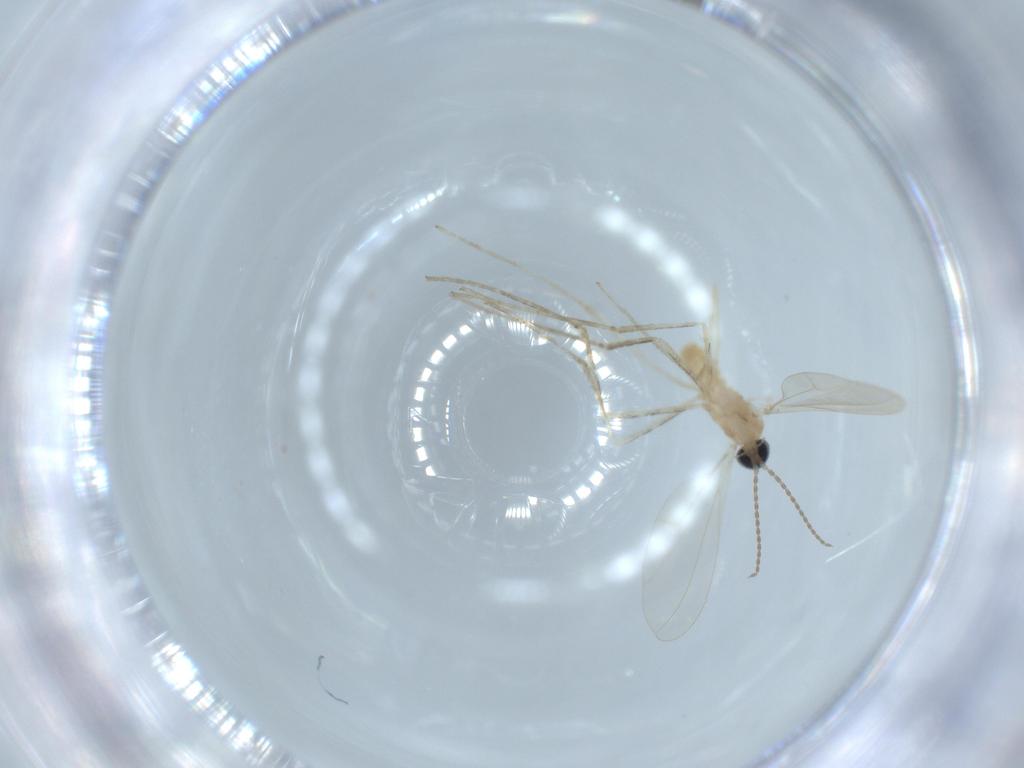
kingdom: Animalia
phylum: Arthropoda
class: Insecta
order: Diptera
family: Cecidomyiidae
